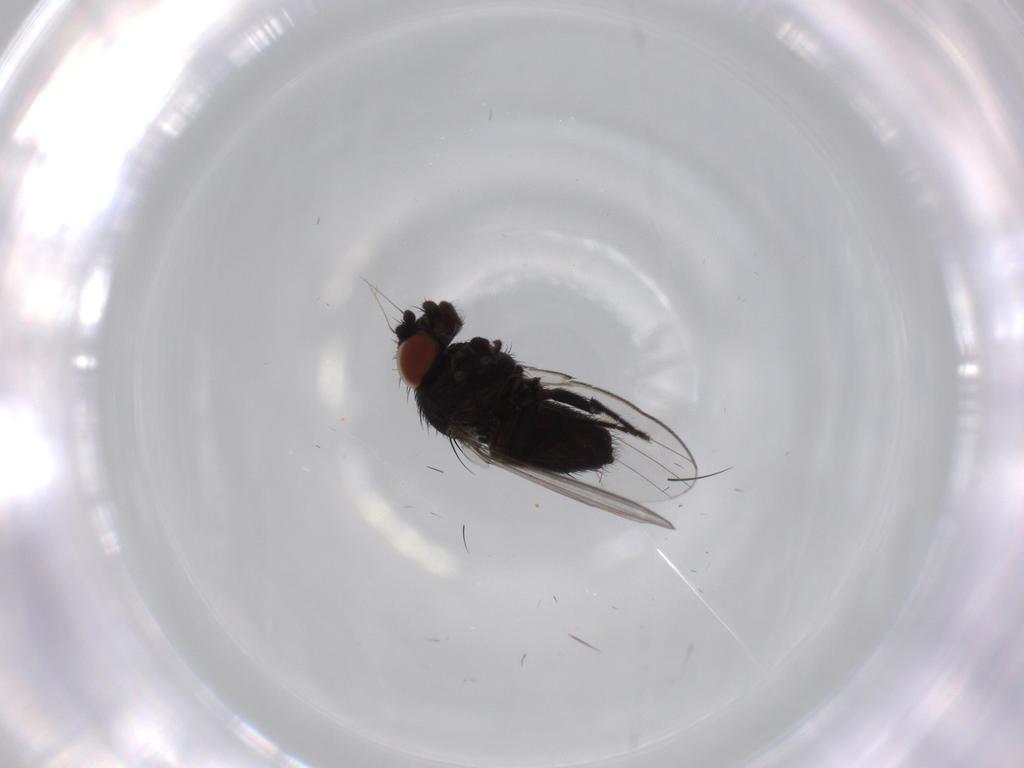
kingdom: Animalia
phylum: Arthropoda
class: Insecta
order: Diptera
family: Milichiidae
